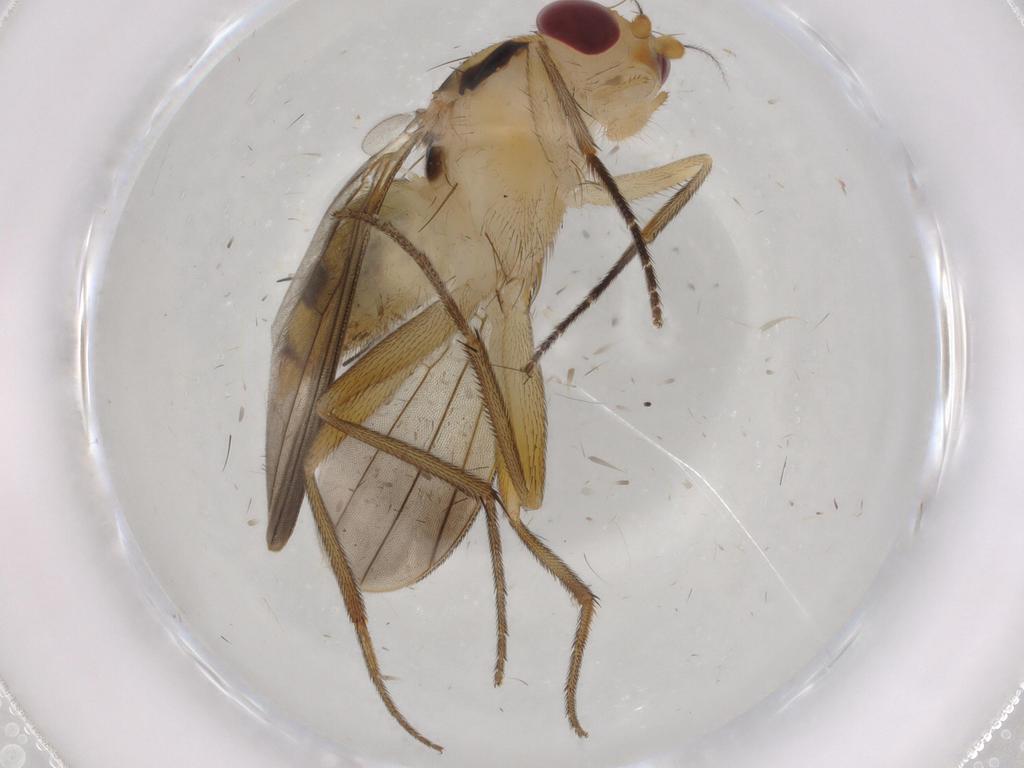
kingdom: Animalia
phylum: Arthropoda
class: Insecta
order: Diptera
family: Clusiidae
